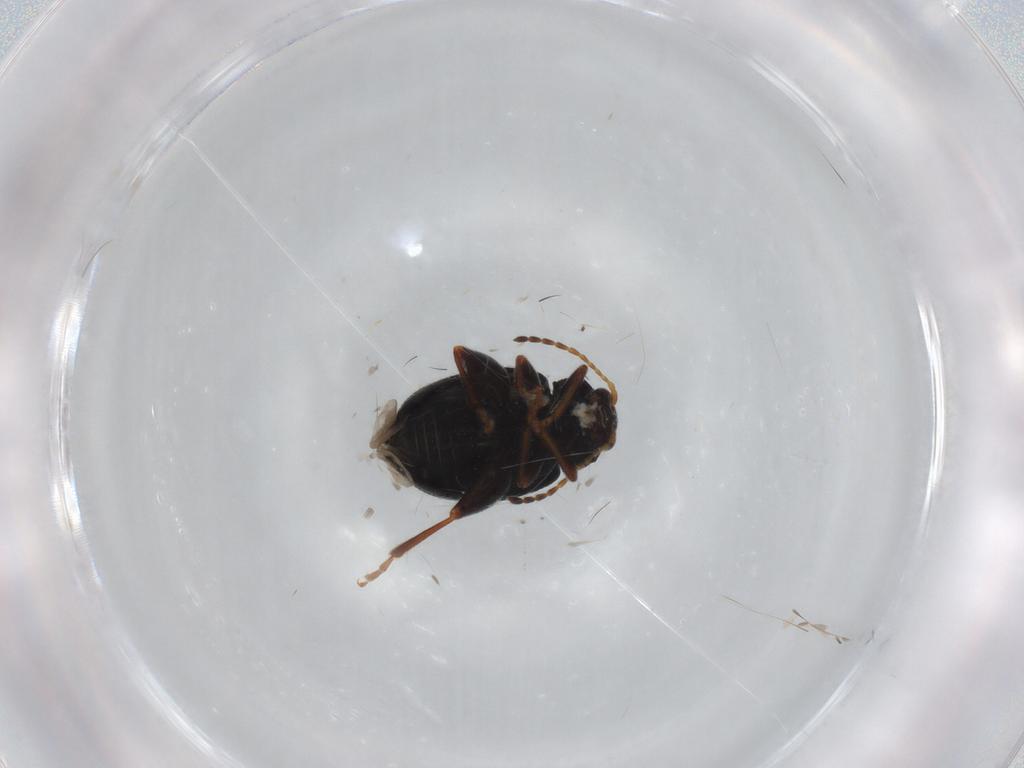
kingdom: Animalia
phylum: Arthropoda
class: Insecta
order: Coleoptera
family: Chrysomelidae
